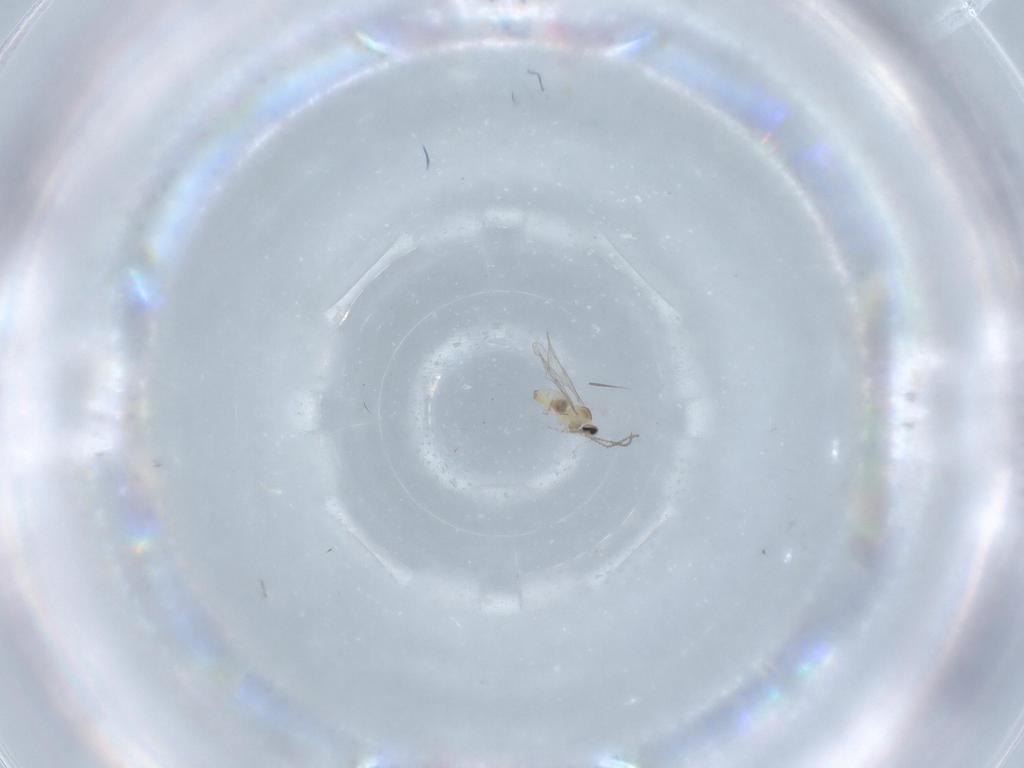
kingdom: Animalia
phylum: Arthropoda
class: Insecta
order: Diptera
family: Cecidomyiidae
